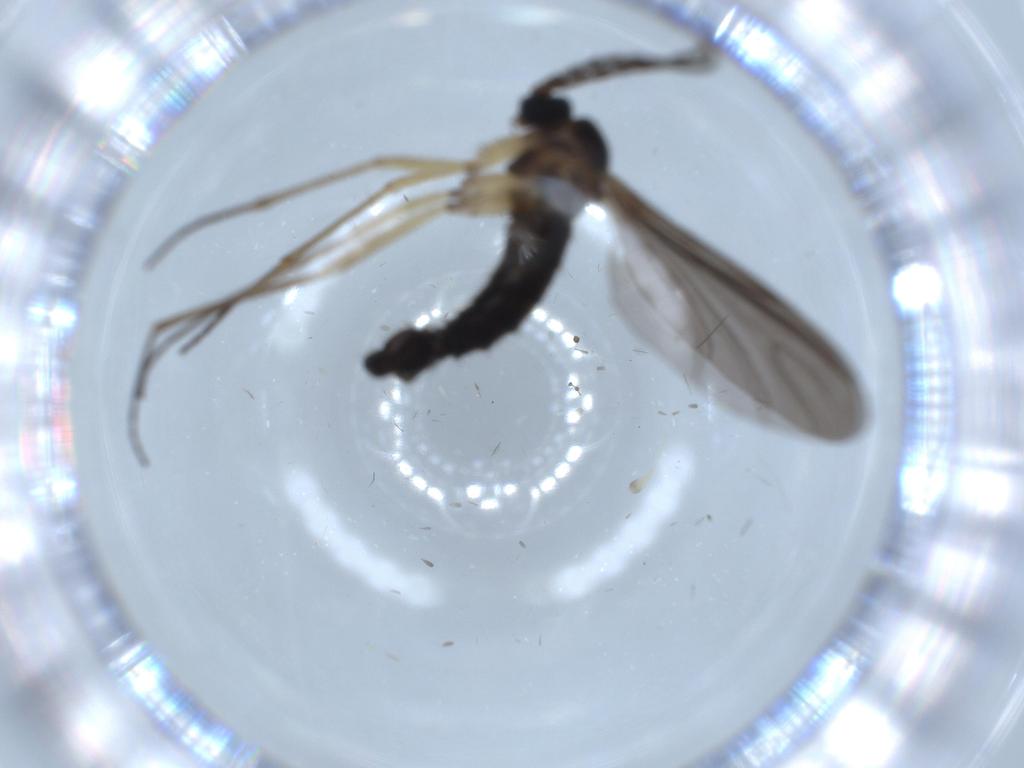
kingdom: Animalia
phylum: Arthropoda
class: Insecta
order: Diptera
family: Sciaridae
